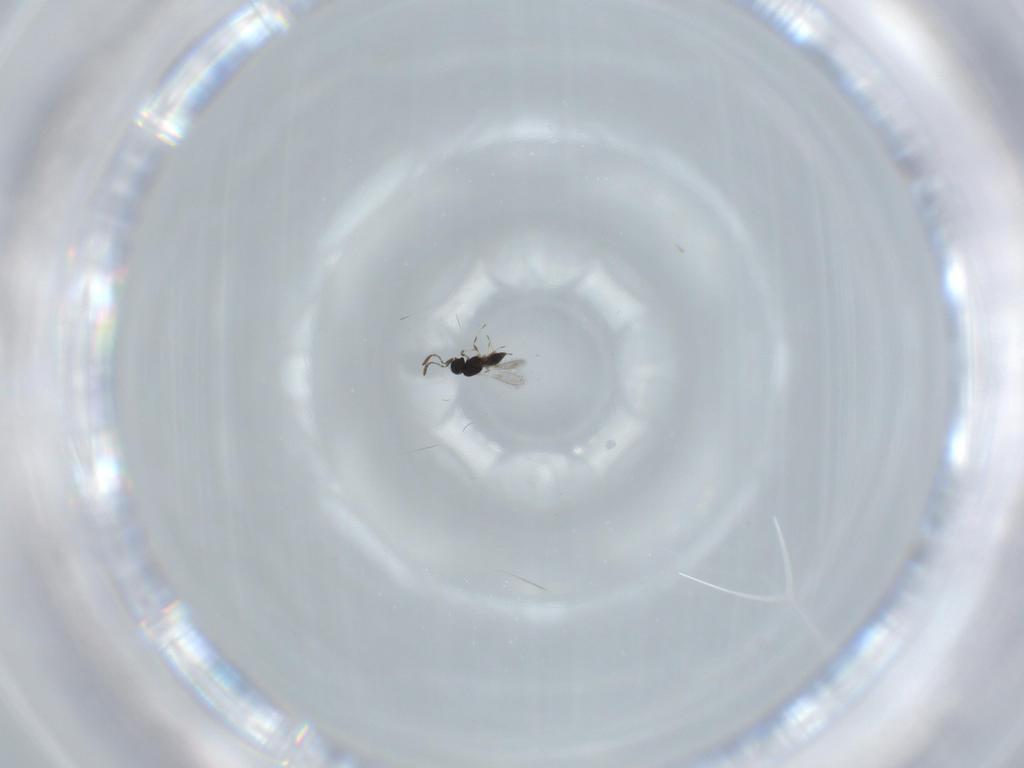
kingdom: Animalia
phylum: Arthropoda
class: Insecta
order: Hymenoptera
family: Scelionidae
